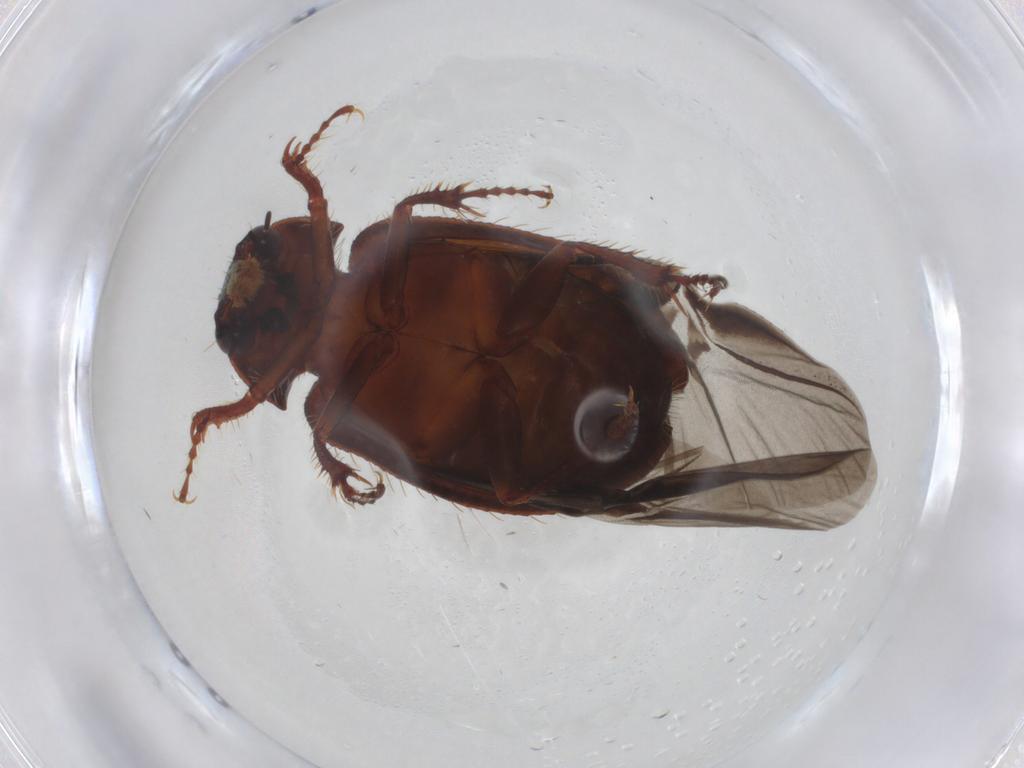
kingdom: Animalia
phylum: Arthropoda
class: Insecta
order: Coleoptera
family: Hybosoridae
